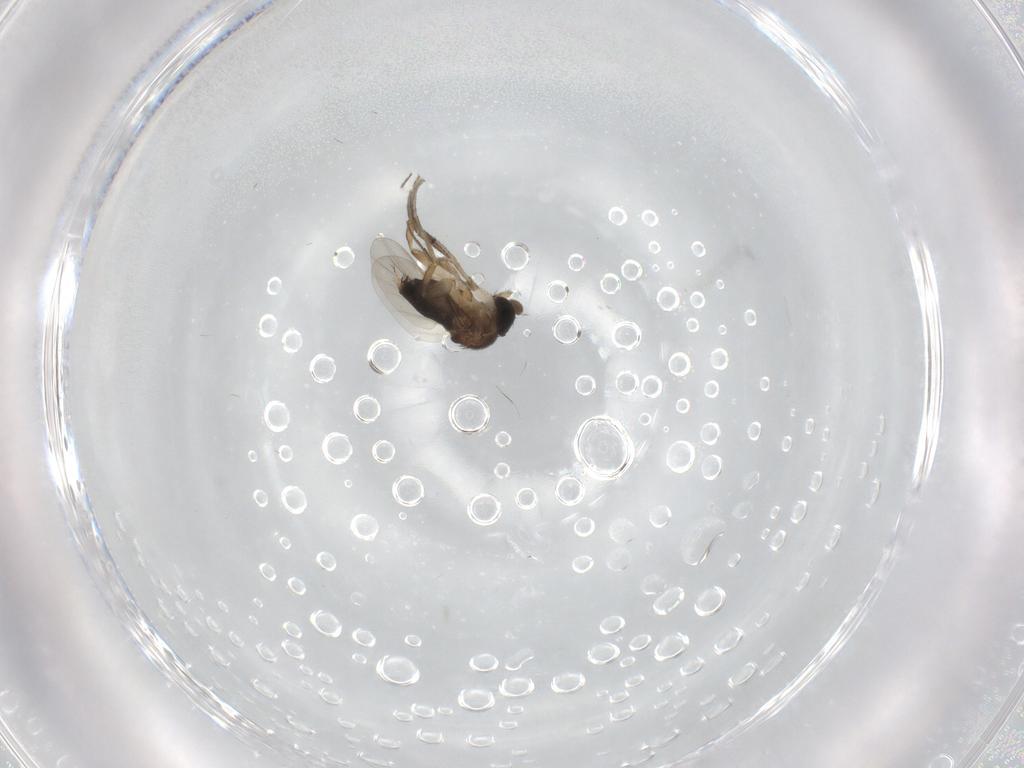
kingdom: Animalia
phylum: Arthropoda
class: Insecta
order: Diptera
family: Phoridae
